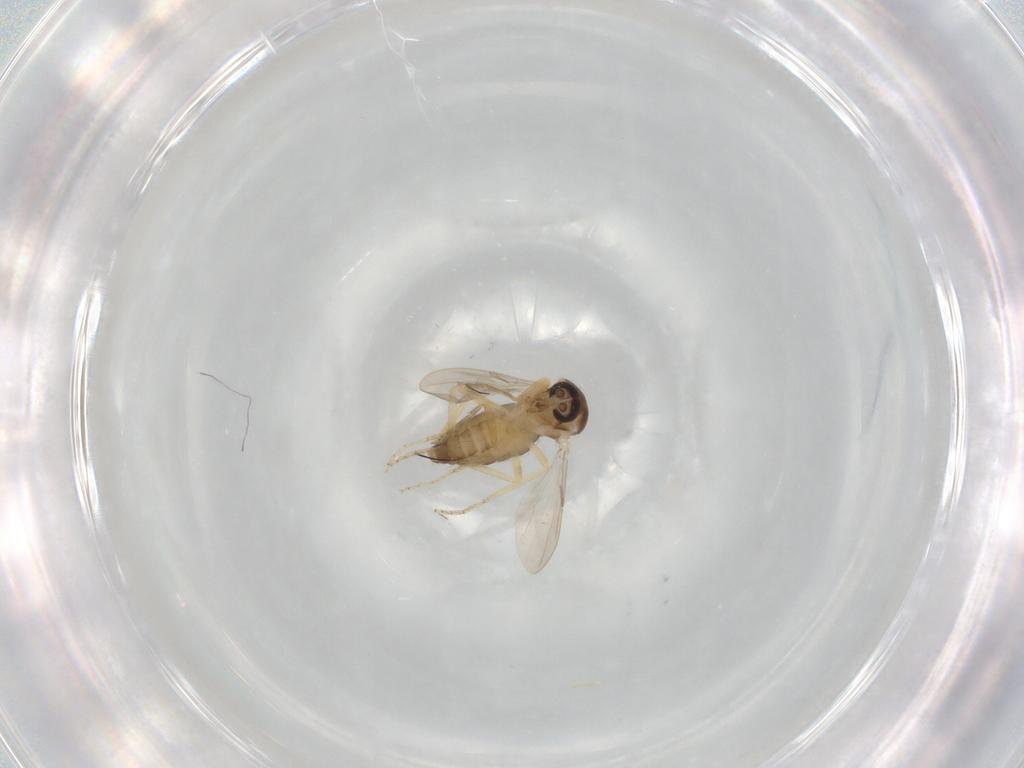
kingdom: Animalia
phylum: Arthropoda
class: Insecta
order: Diptera
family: Ceratopogonidae
